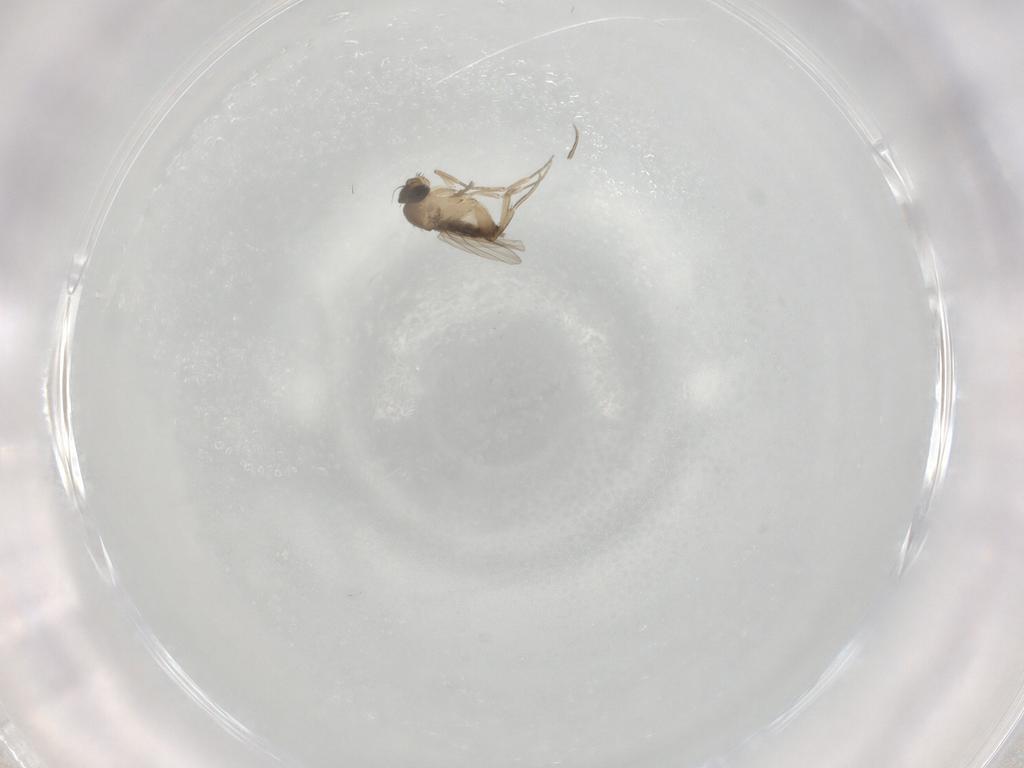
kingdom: Animalia
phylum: Arthropoda
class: Insecta
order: Diptera
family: Phoridae
